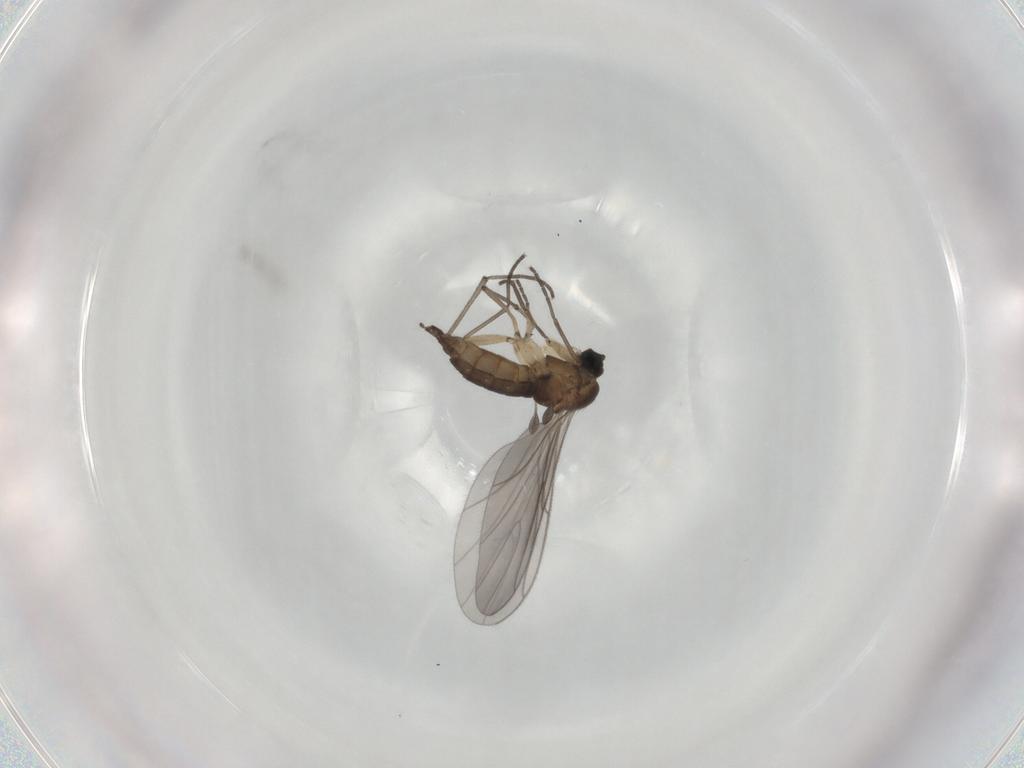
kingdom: Animalia
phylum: Arthropoda
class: Insecta
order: Diptera
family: Sciaridae
